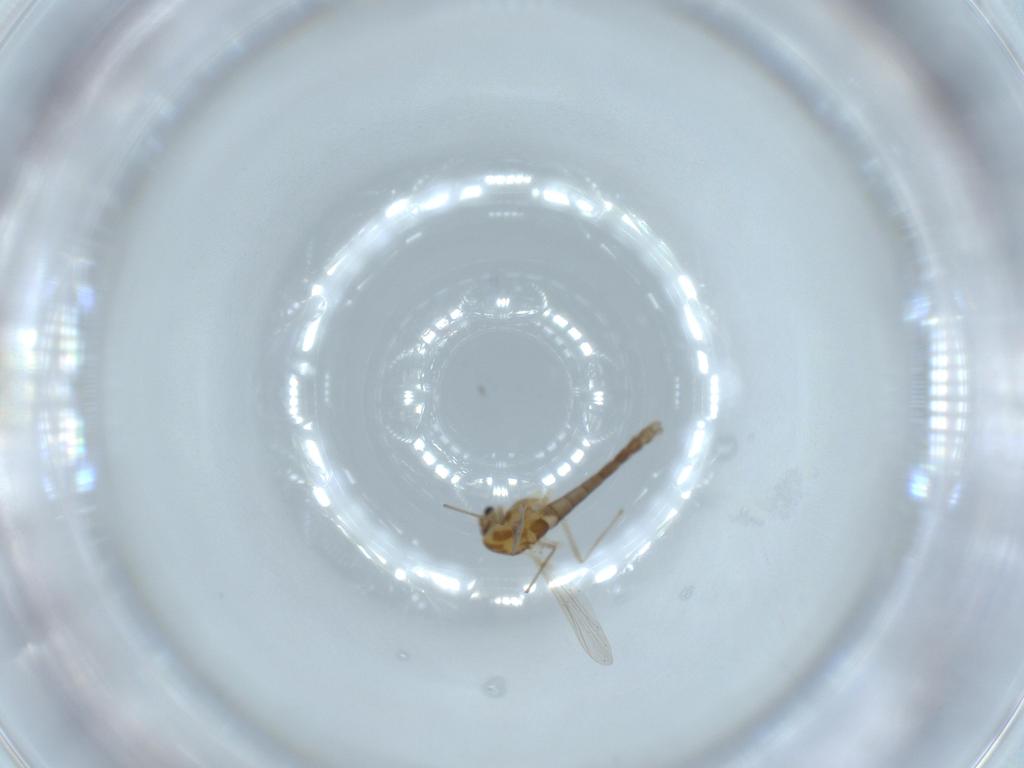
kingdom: Animalia
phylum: Arthropoda
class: Insecta
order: Diptera
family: Chironomidae
